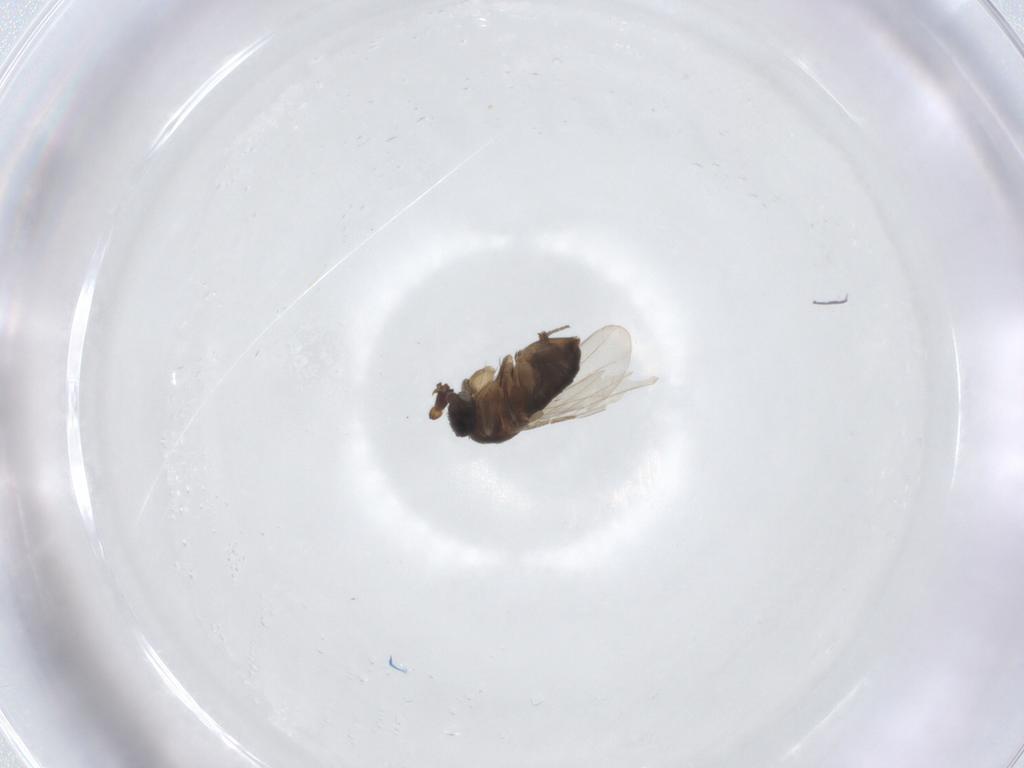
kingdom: Animalia
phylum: Arthropoda
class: Insecta
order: Diptera
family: Phoridae
